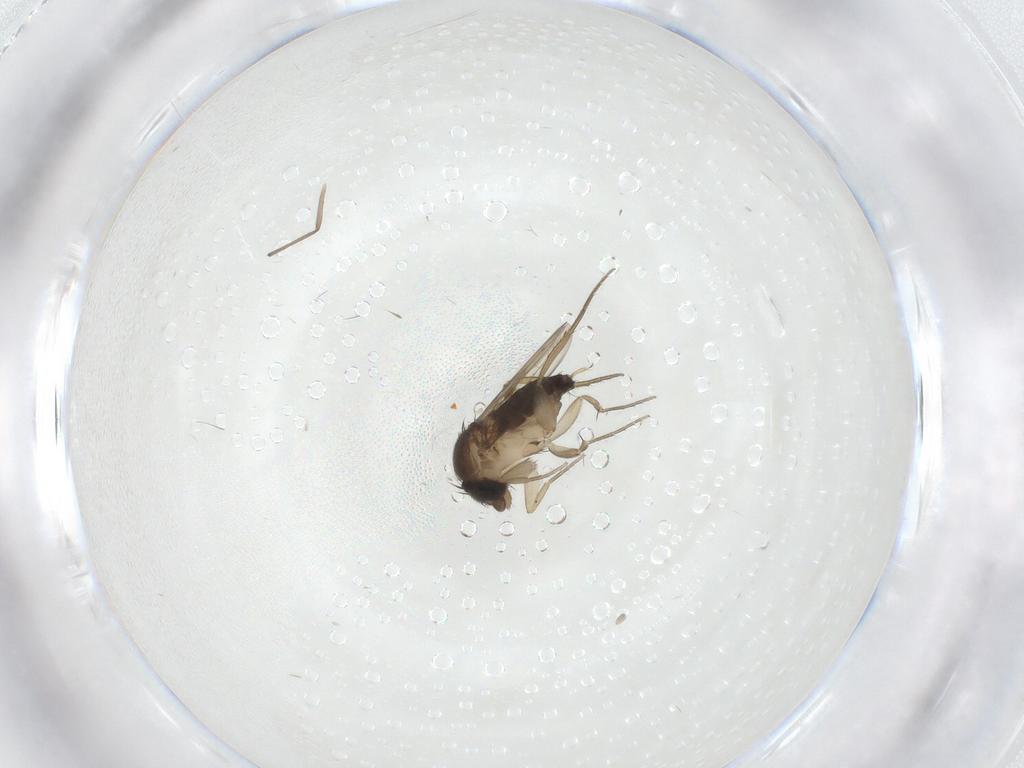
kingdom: Animalia
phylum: Arthropoda
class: Insecta
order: Diptera
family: Phoridae
